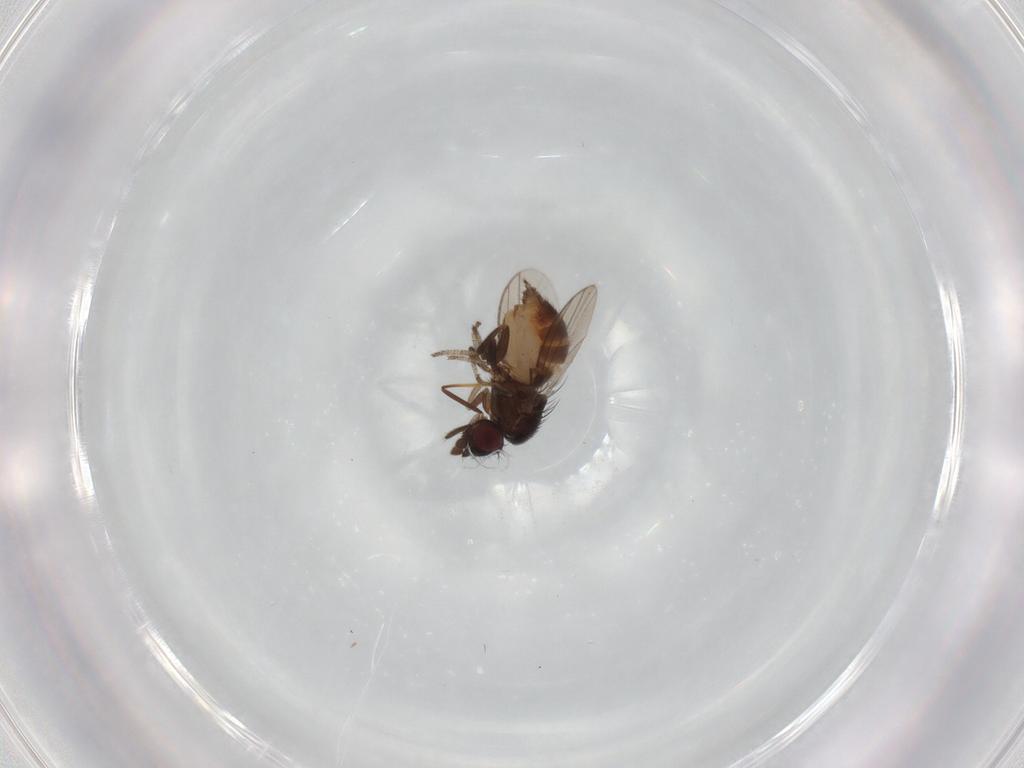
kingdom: Animalia
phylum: Arthropoda
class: Insecta
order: Diptera
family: Milichiidae
